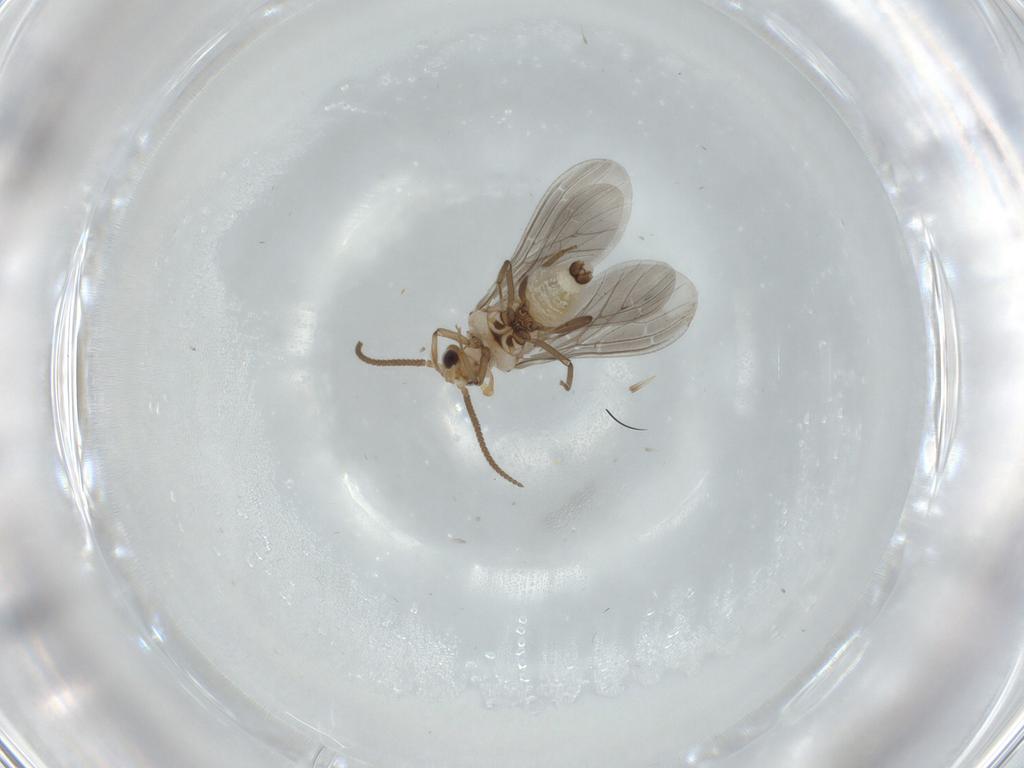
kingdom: Animalia
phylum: Arthropoda
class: Insecta
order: Neuroptera
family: Coniopterygidae
